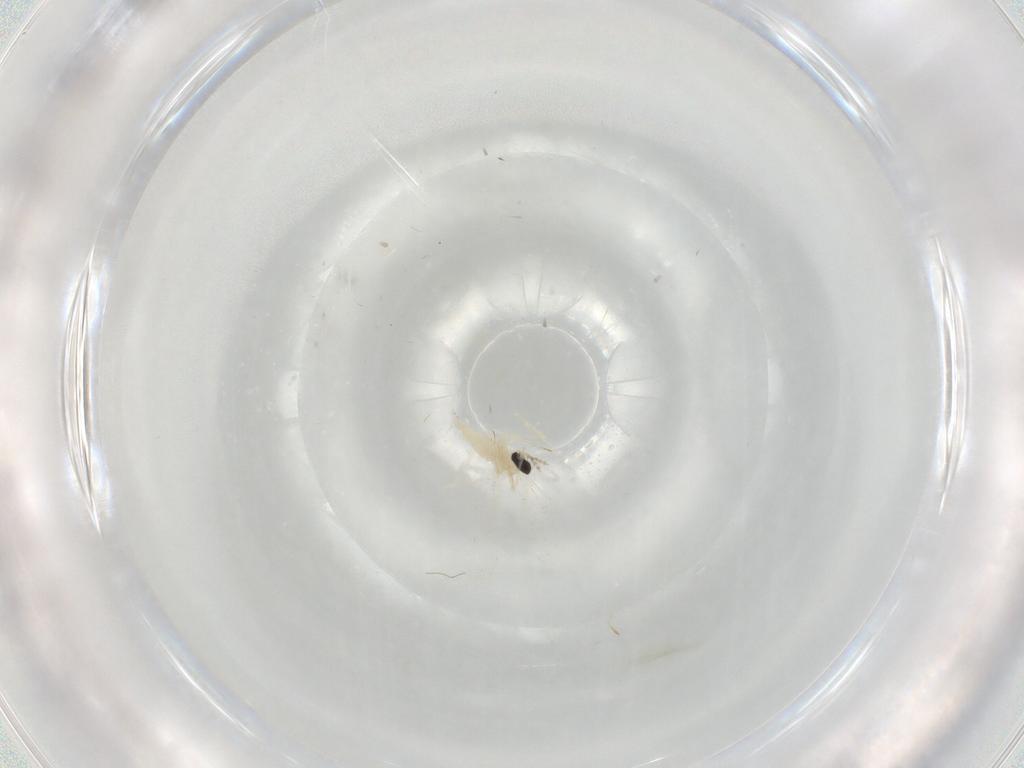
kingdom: Animalia
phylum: Arthropoda
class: Insecta
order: Diptera
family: Cecidomyiidae
